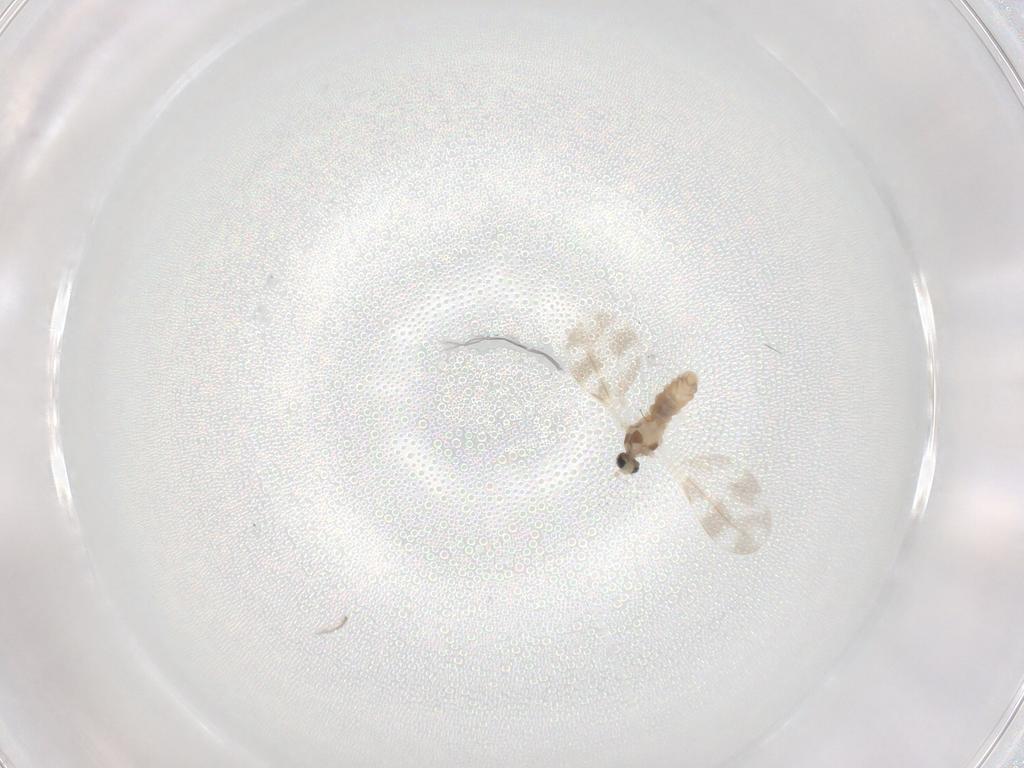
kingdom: Animalia
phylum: Arthropoda
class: Insecta
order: Diptera
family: Cecidomyiidae
